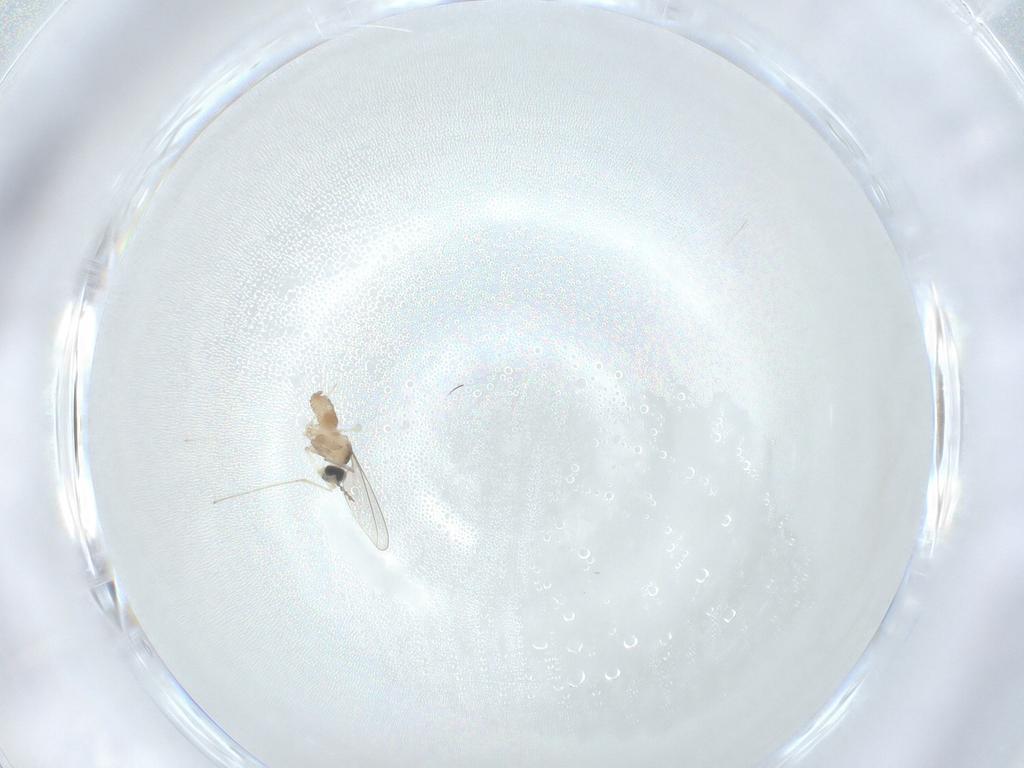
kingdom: Animalia
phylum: Arthropoda
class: Insecta
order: Diptera
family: Cecidomyiidae
